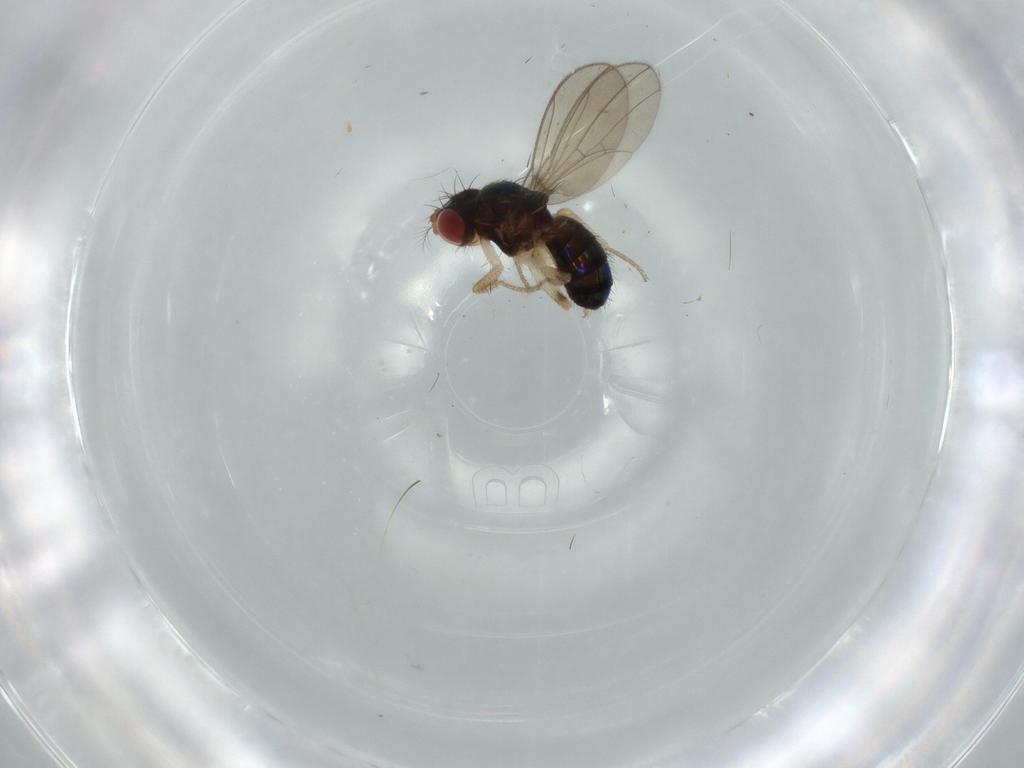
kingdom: Animalia
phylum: Arthropoda
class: Insecta
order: Diptera
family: Drosophilidae
